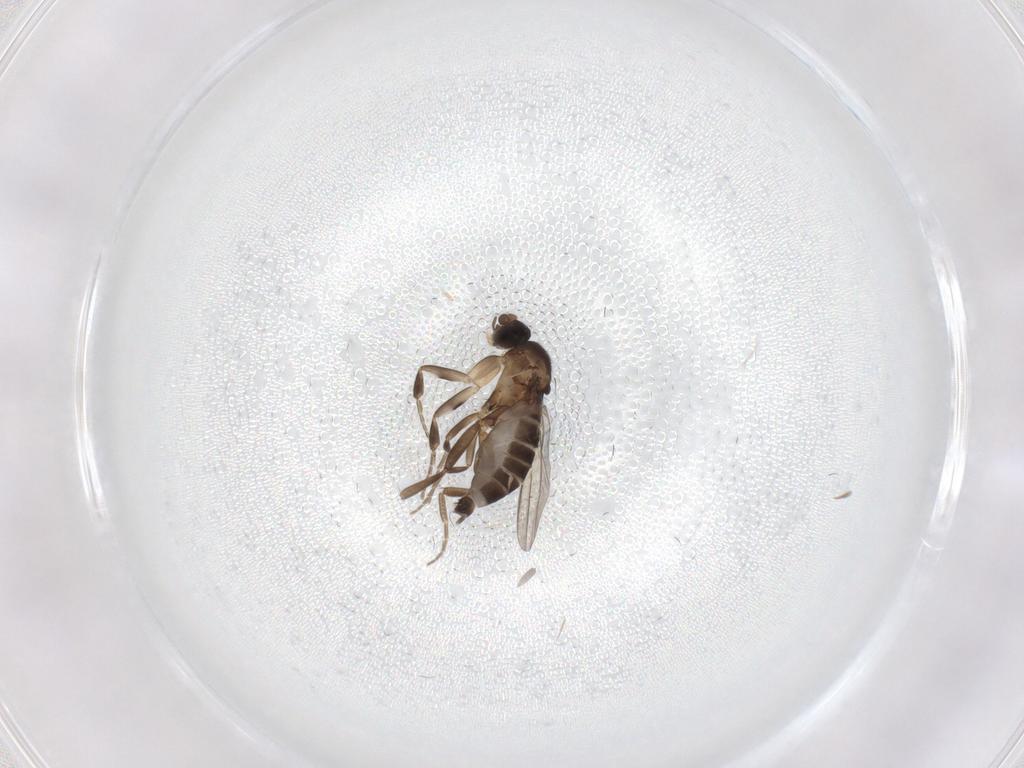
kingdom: Animalia
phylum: Arthropoda
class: Insecta
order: Diptera
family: Phoridae
